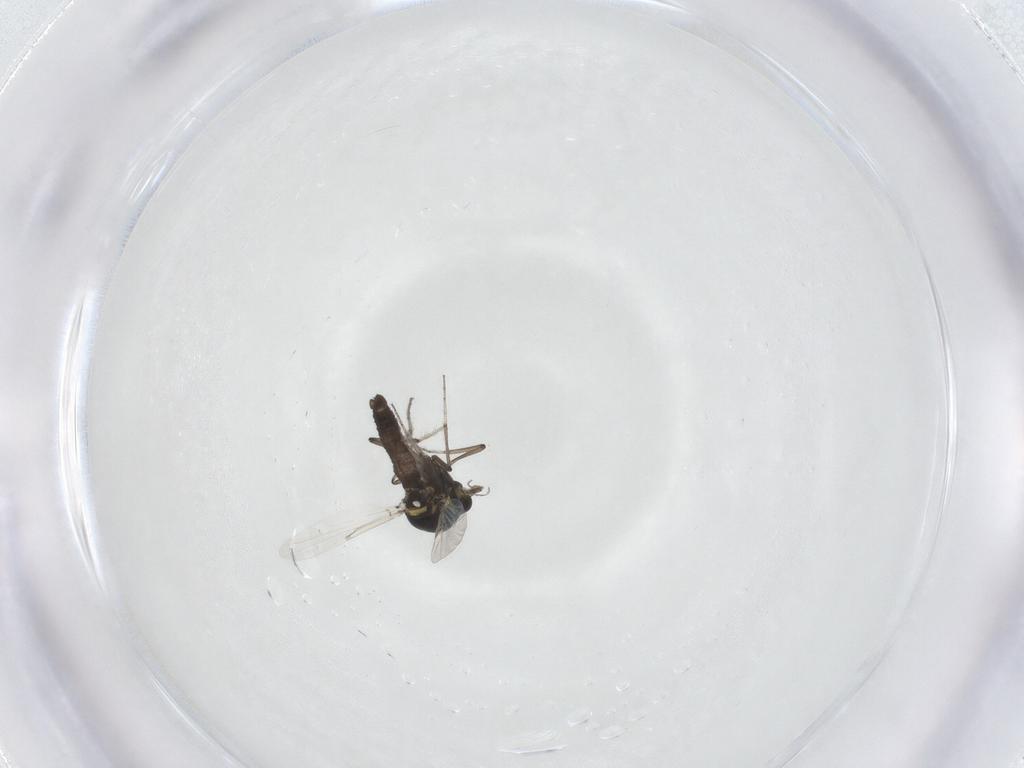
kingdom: Animalia
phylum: Arthropoda
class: Insecta
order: Diptera
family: Ceratopogonidae
